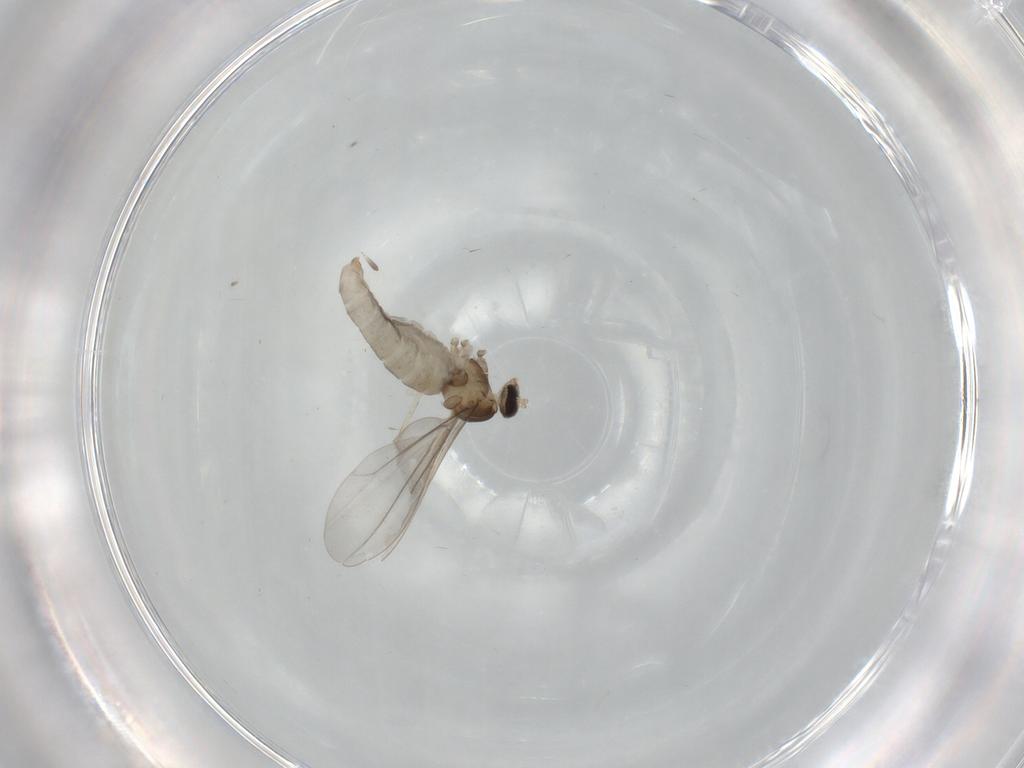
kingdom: Animalia
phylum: Arthropoda
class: Insecta
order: Diptera
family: Cecidomyiidae
